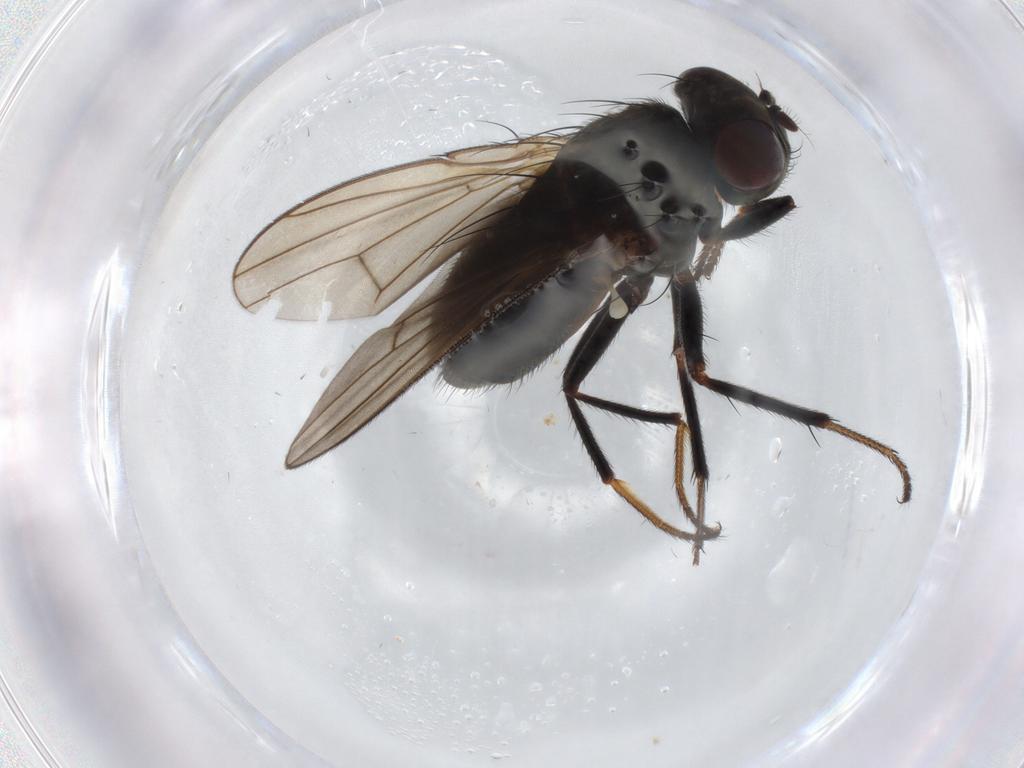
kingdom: Animalia
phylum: Arthropoda
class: Insecta
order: Diptera
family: Ephydridae
